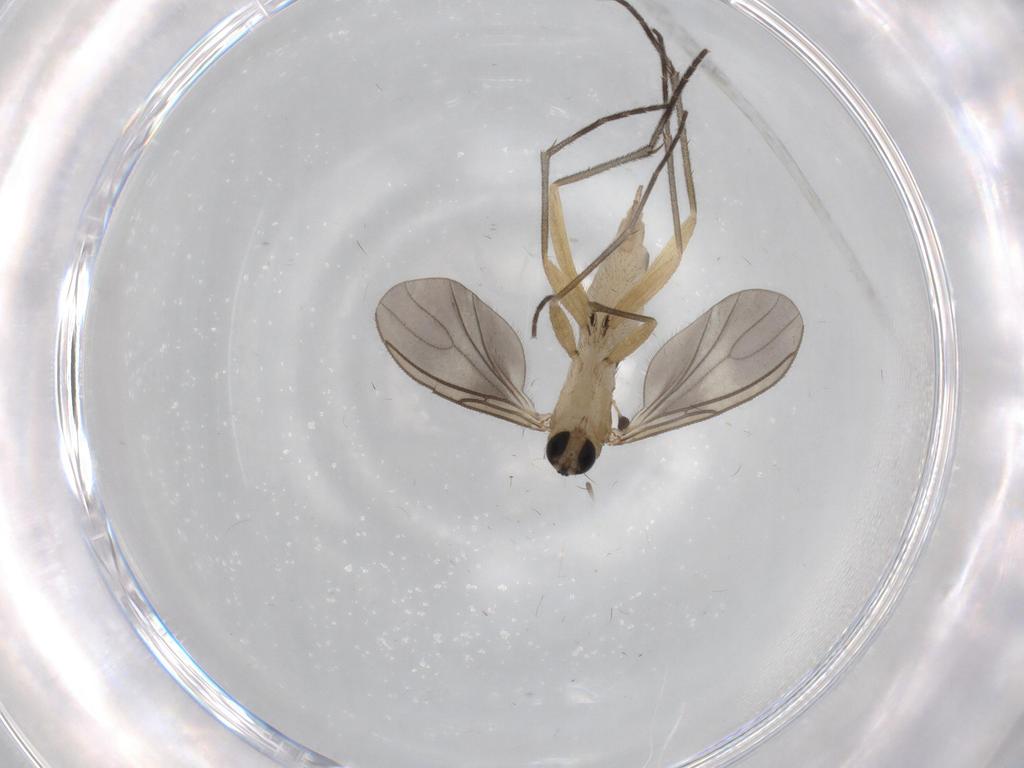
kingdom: Animalia
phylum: Arthropoda
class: Insecta
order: Diptera
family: Sciaridae
